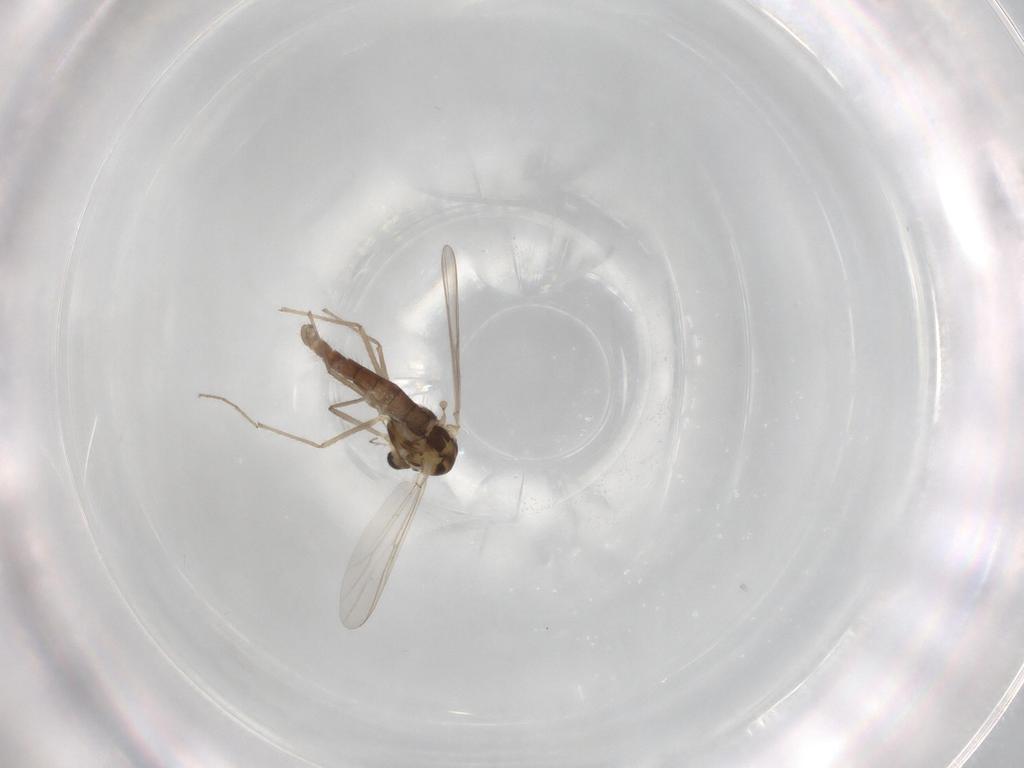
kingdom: Animalia
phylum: Arthropoda
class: Insecta
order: Diptera
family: Chironomidae
